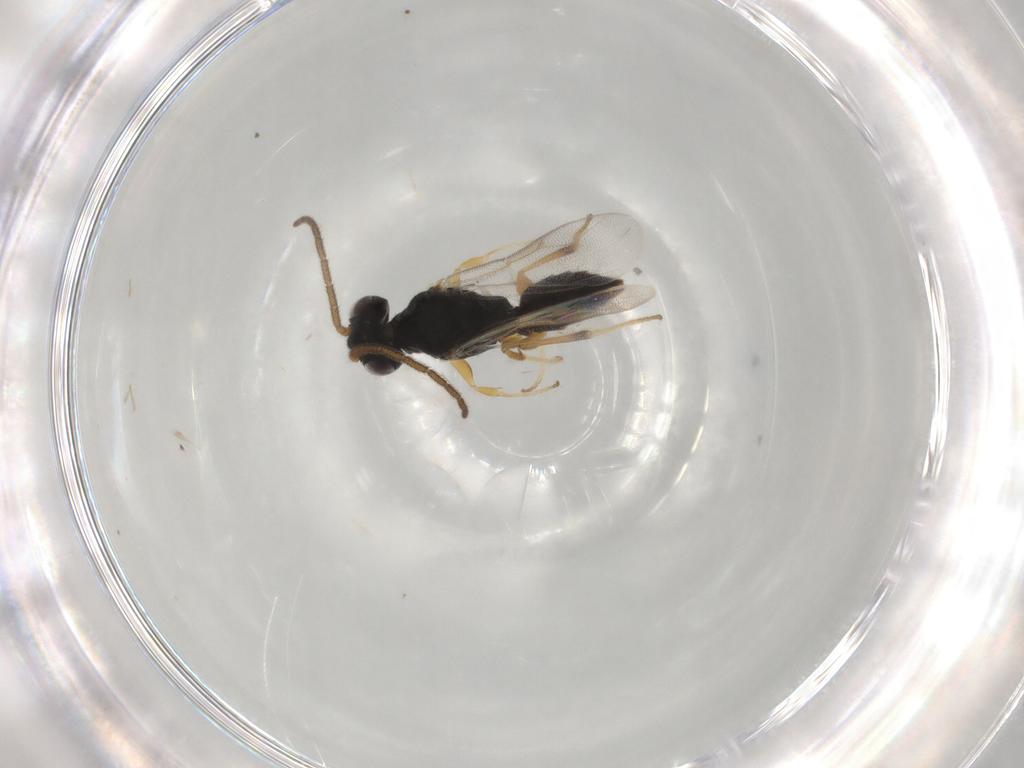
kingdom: Animalia
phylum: Arthropoda
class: Insecta
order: Hymenoptera
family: Dryinidae
